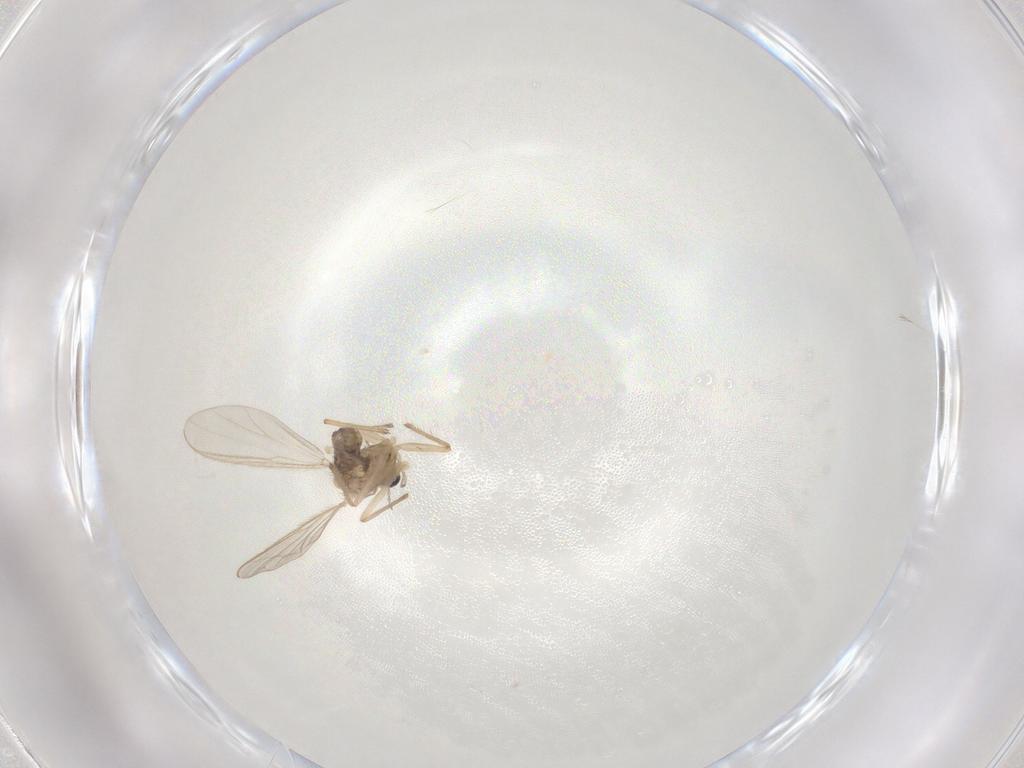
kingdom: Animalia
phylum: Arthropoda
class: Insecta
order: Diptera
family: Chironomidae
